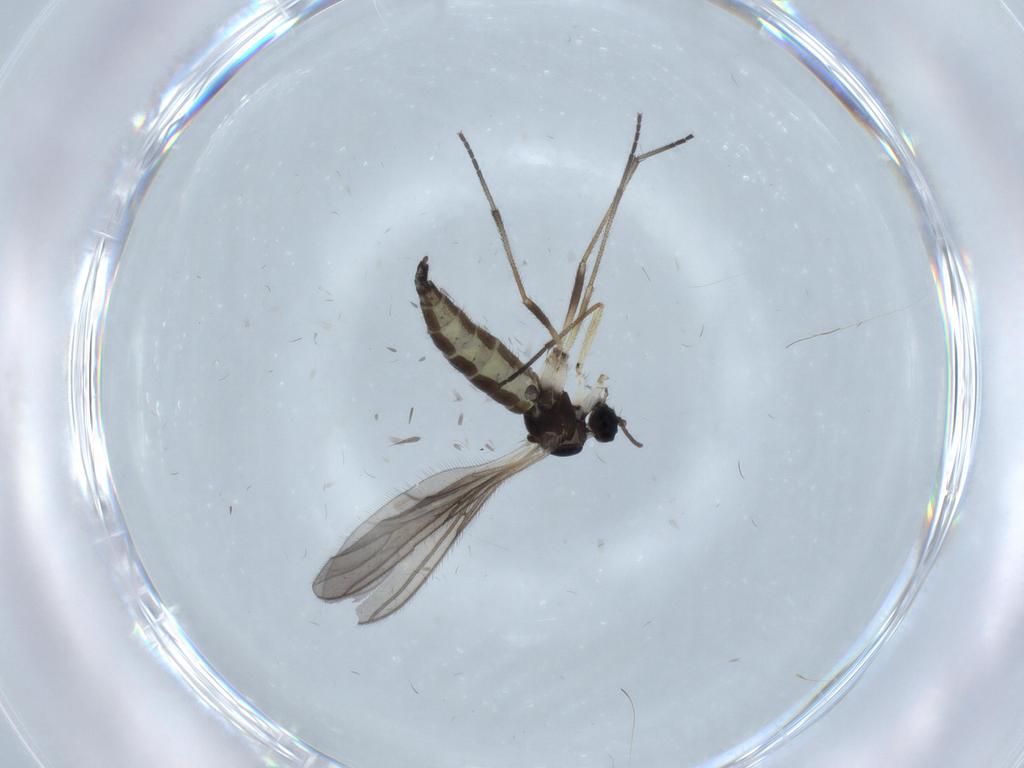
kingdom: Animalia
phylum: Arthropoda
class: Insecta
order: Diptera
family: Sciaridae
